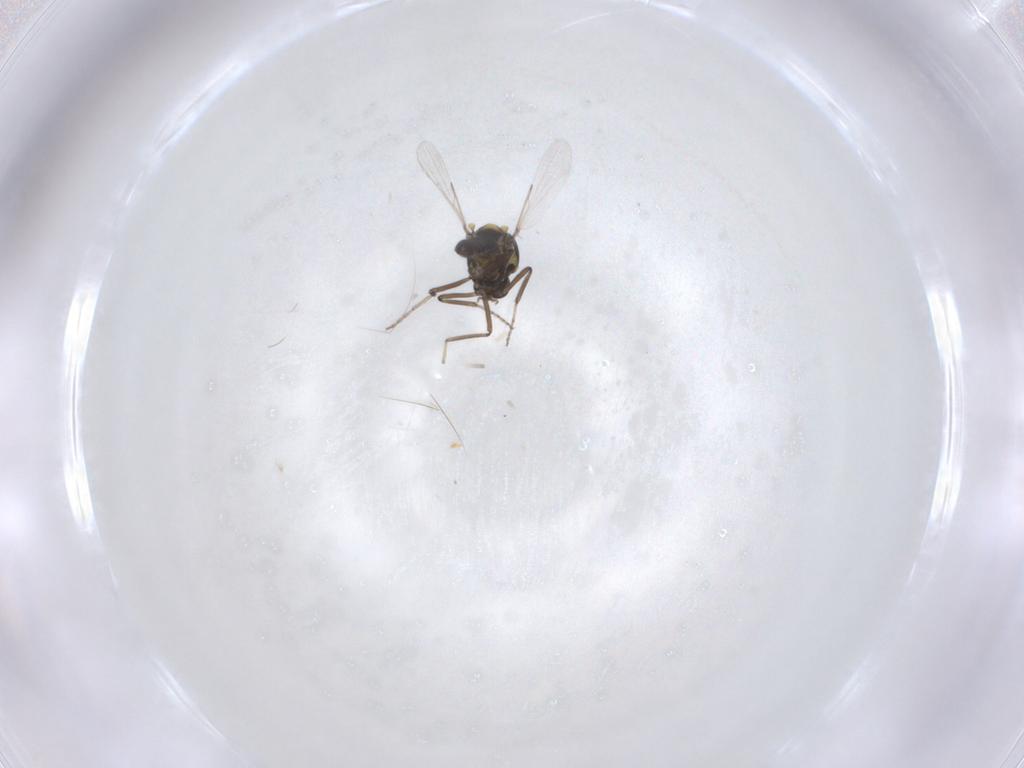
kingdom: Animalia
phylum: Arthropoda
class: Insecta
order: Diptera
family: Ceratopogonidae
